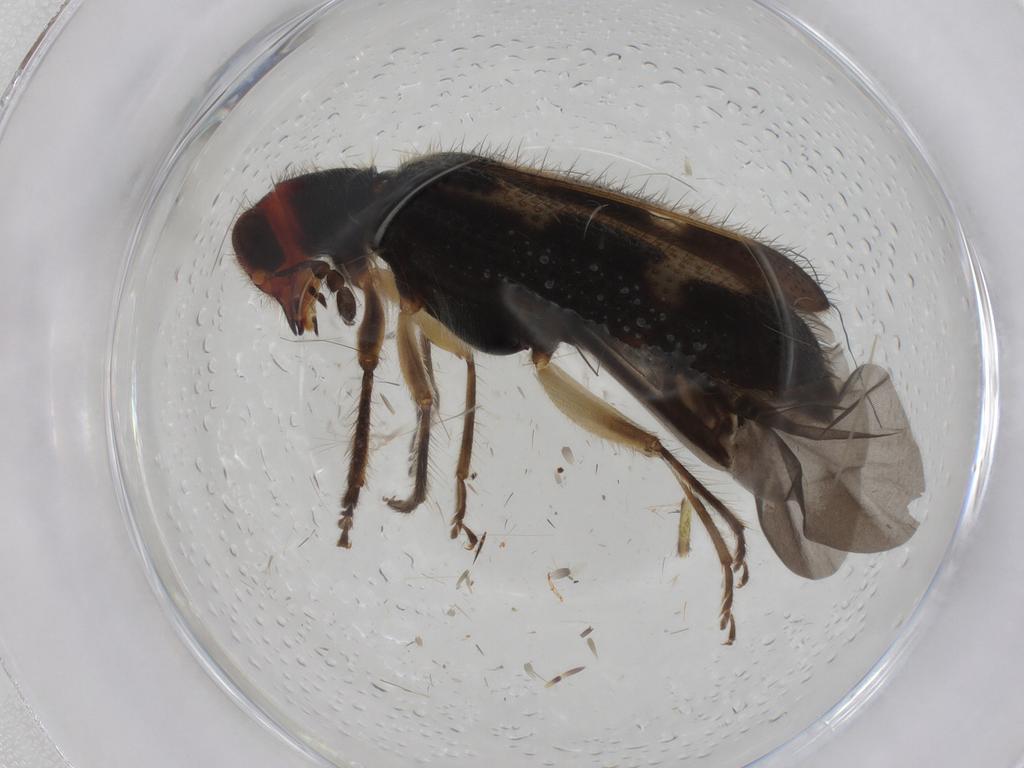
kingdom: Animalia
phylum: Arthropoda
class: Insecta
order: Coleoptera
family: Cleridae
